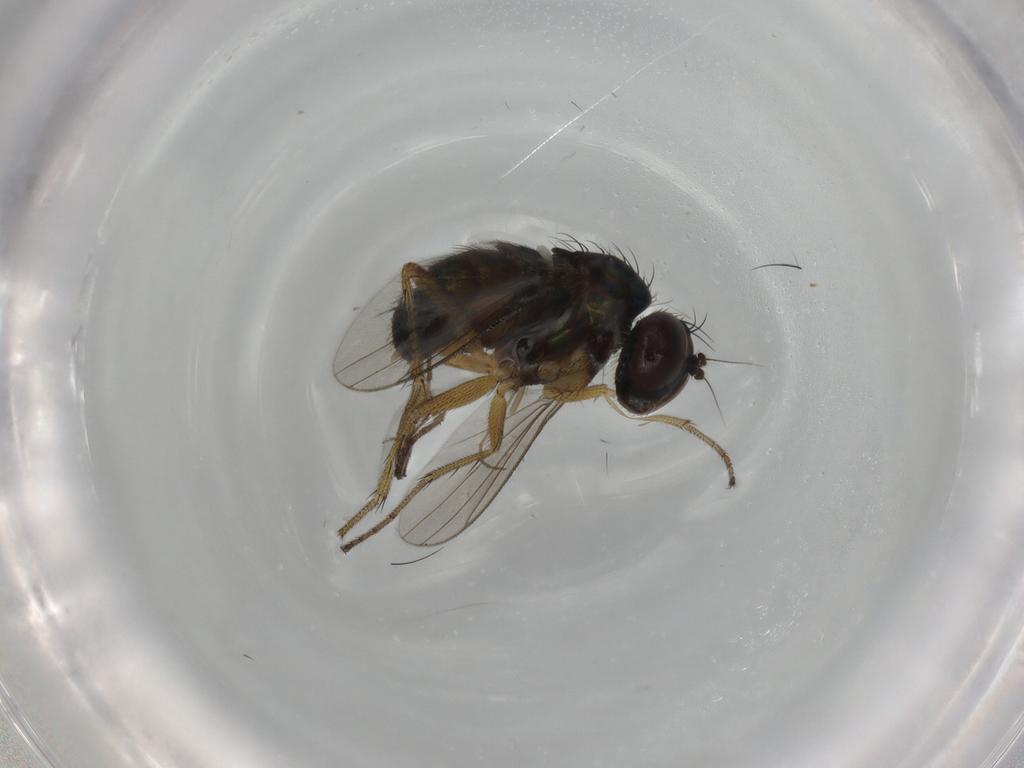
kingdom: Animalia
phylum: Arthropoda
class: Insecta
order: Diptera
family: Dolichopodidae
